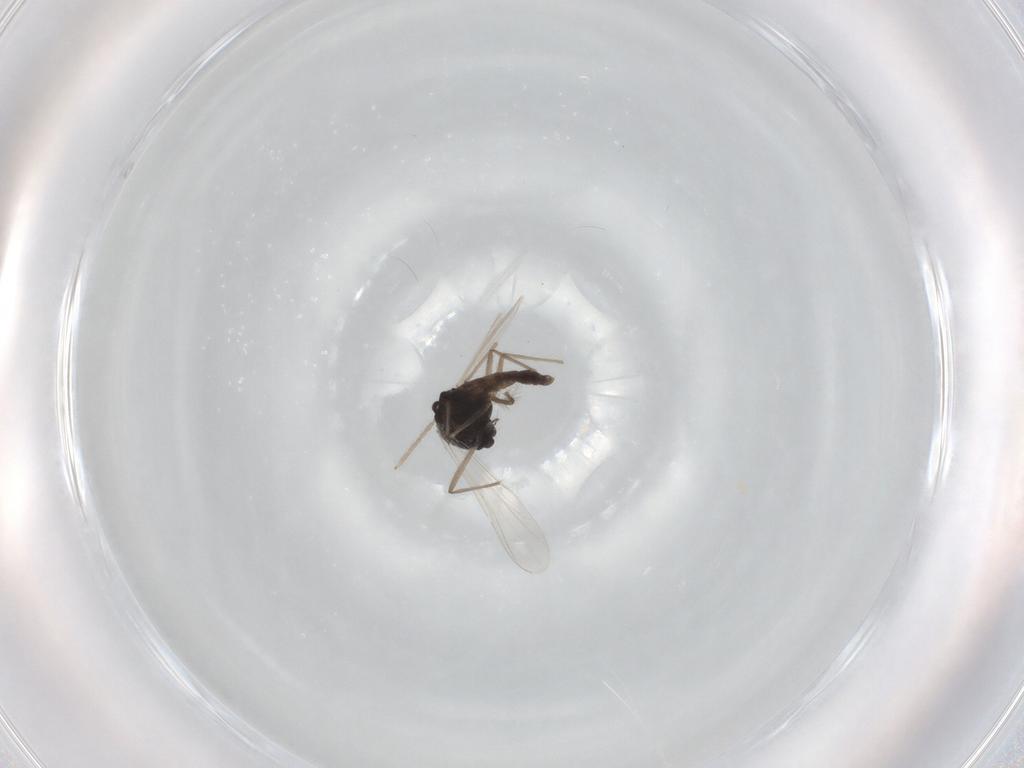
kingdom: Animalia
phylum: Arthropoda
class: Insecta
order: Diptera
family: Chironomidae
